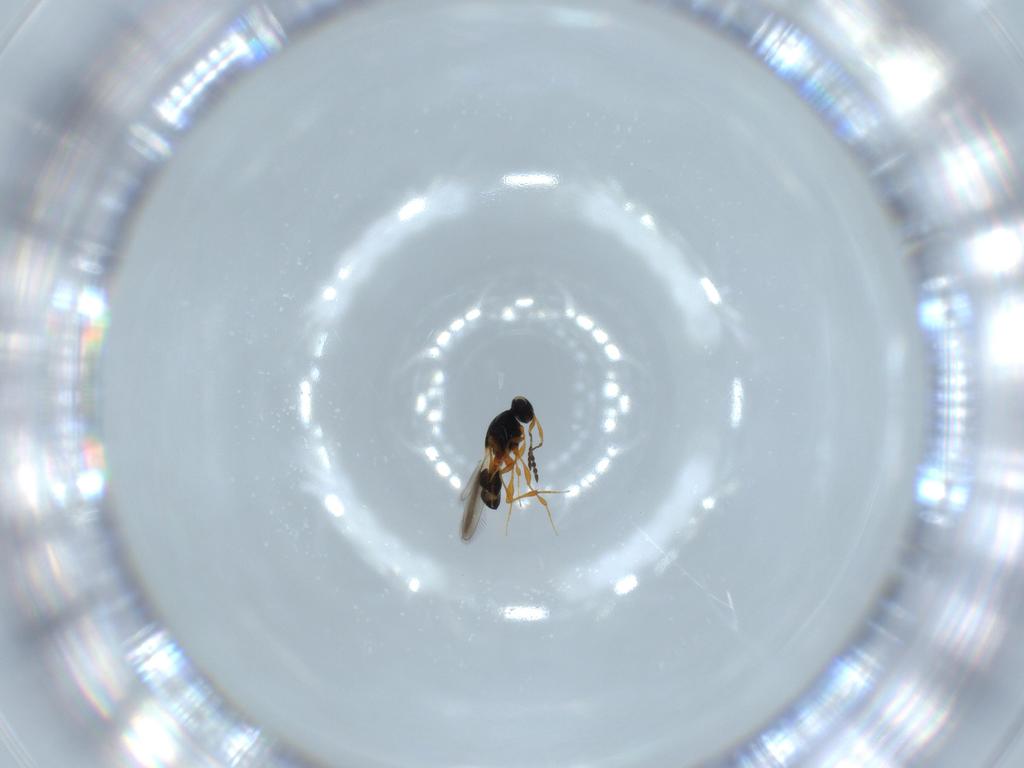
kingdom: Animalia
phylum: Arthropoda
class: Insecta
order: Hymenoptera
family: Platygastridae
